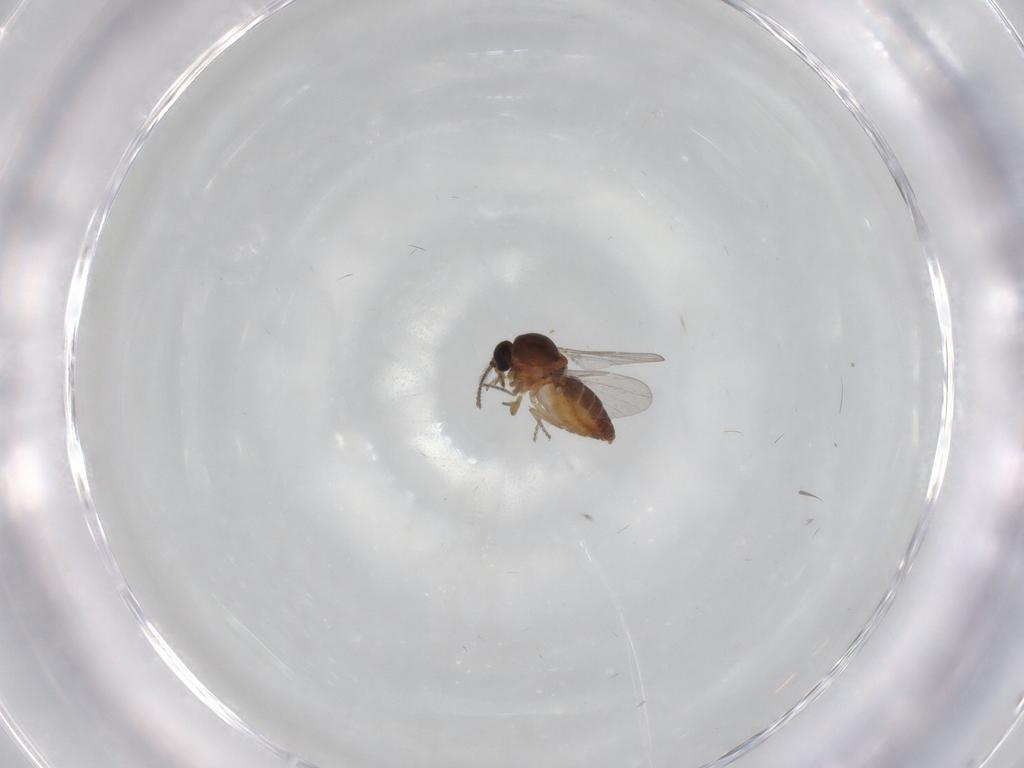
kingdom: Animalia
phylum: Arthropoda
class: Insecta
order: Diptera
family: Ceratopogonidae
